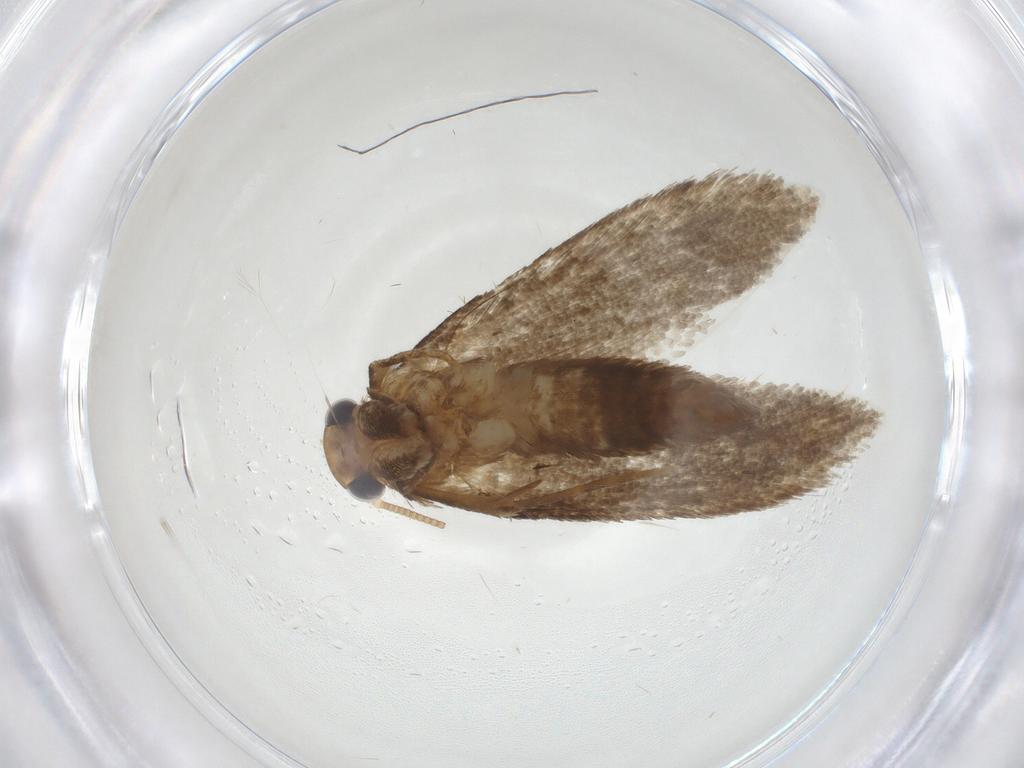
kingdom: Animalia
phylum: Arthropoda
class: Insecta
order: Lepidoptera
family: Tineidae
